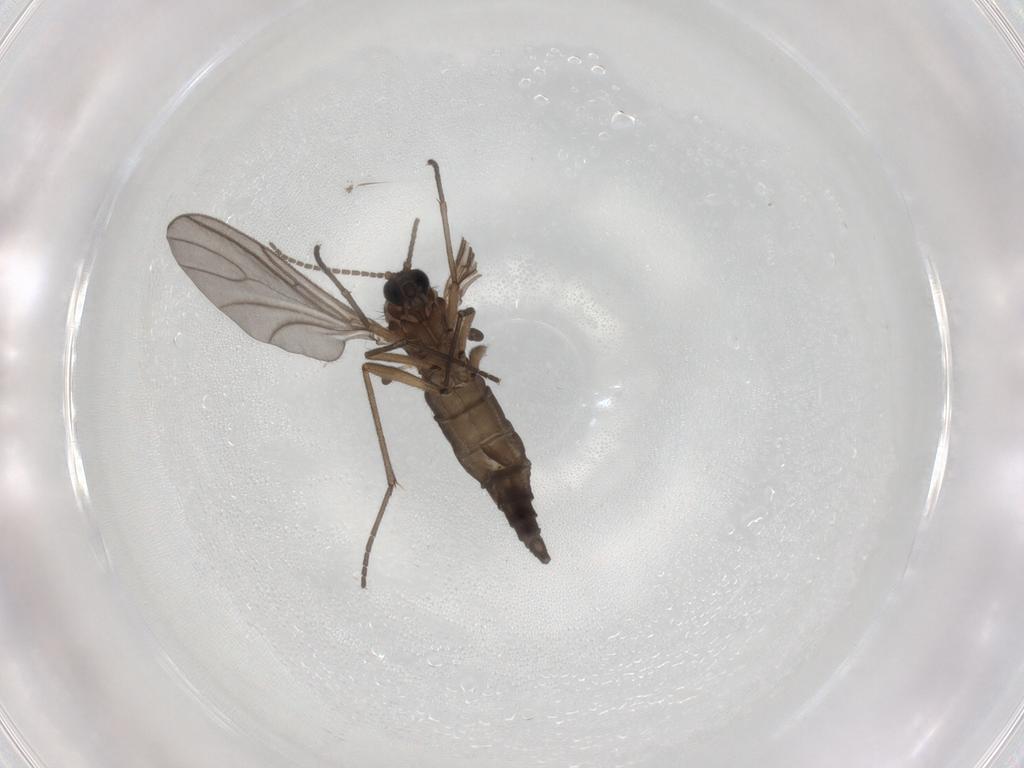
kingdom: Animalia
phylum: Arthropoda
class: Insecta
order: Diptera
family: Sciaridae
